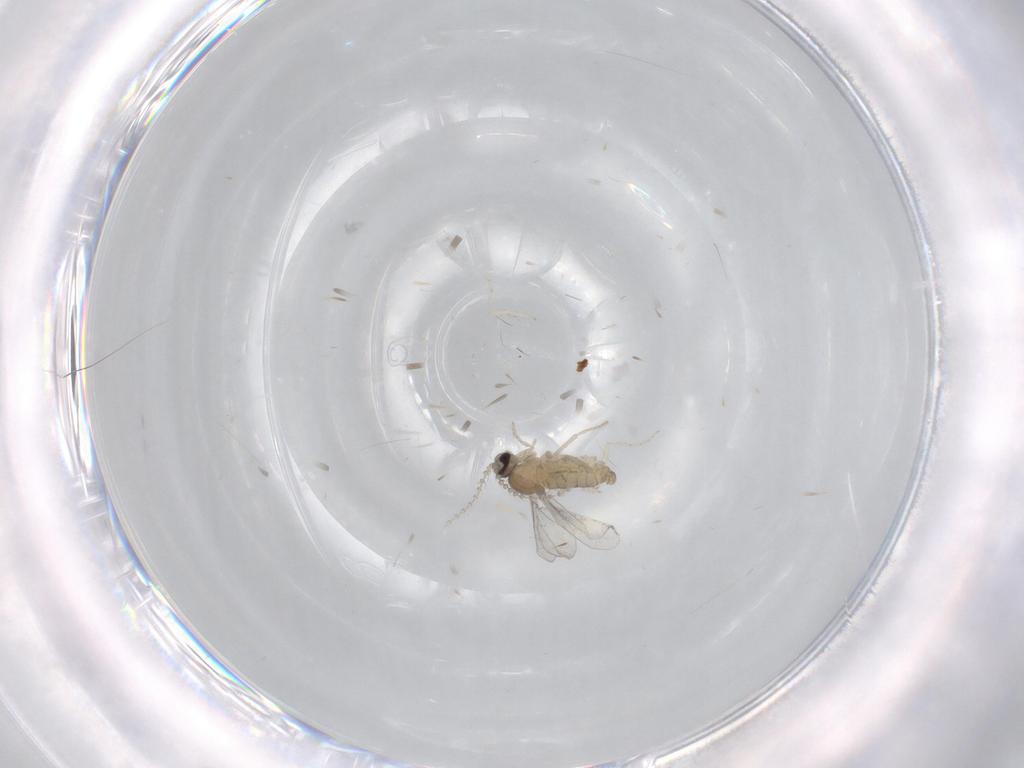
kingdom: Animalia
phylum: Arthropoda
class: Insecta
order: Diptera
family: Cecidomyiidae
